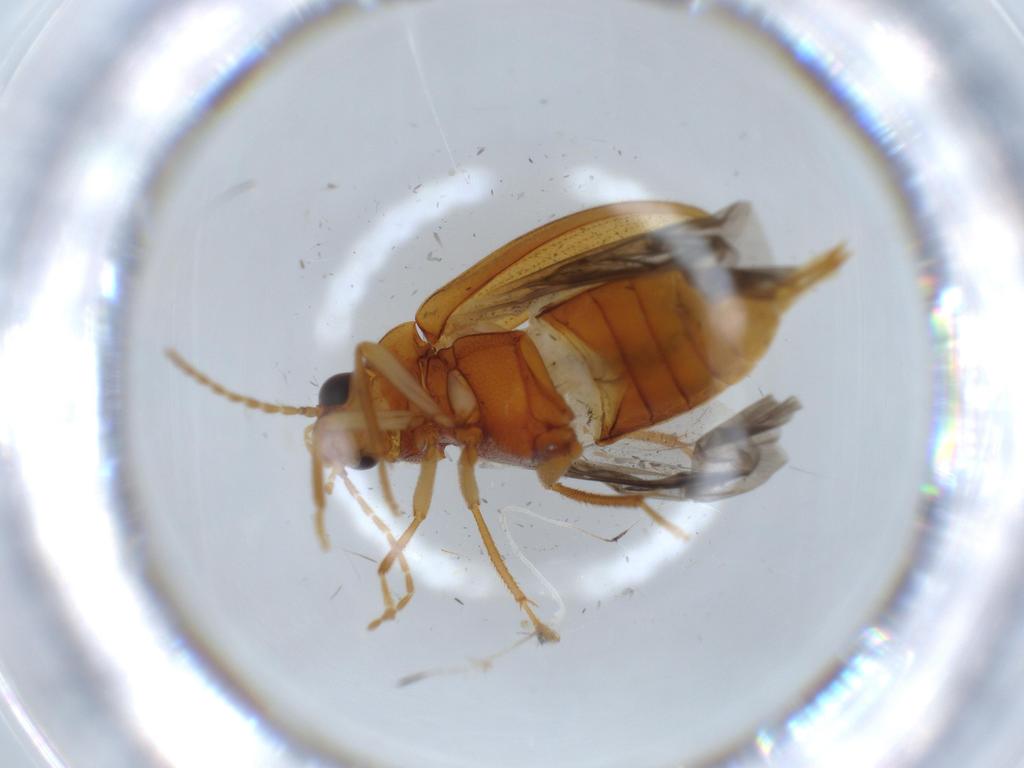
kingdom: Animalia
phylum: Arthropoda
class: Insecta
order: Coleoptera
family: Ptilodactylidae
